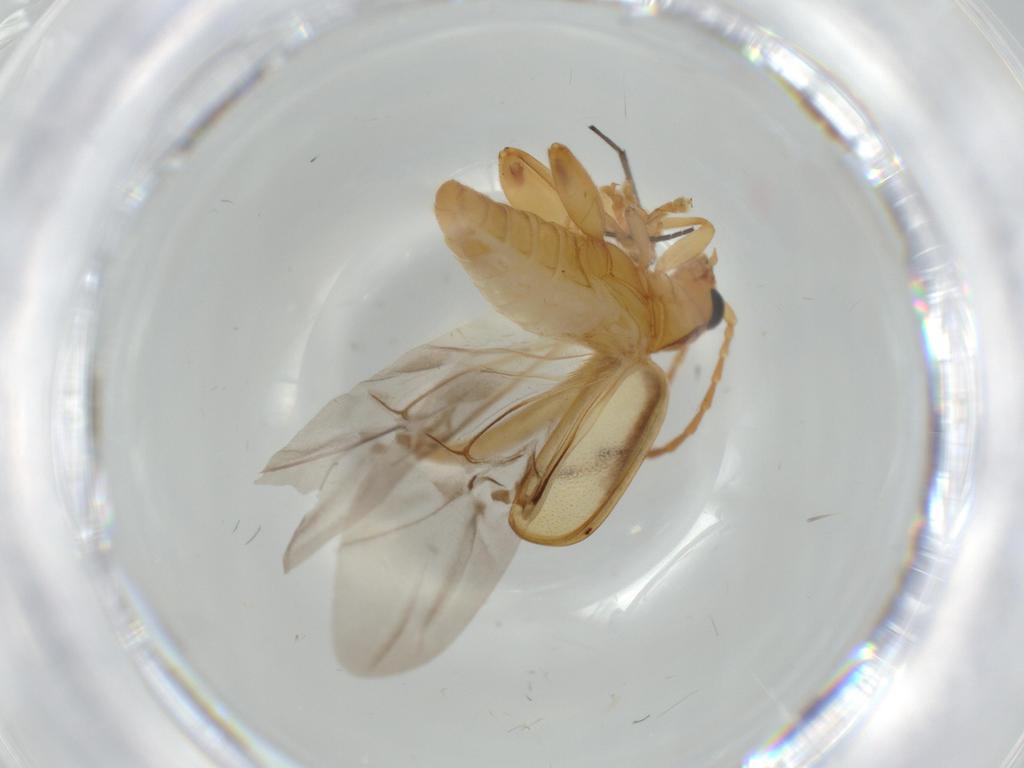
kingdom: Animalia
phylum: Arthropoda
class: Insecta
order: Coleoptera
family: Chrysomelidae
